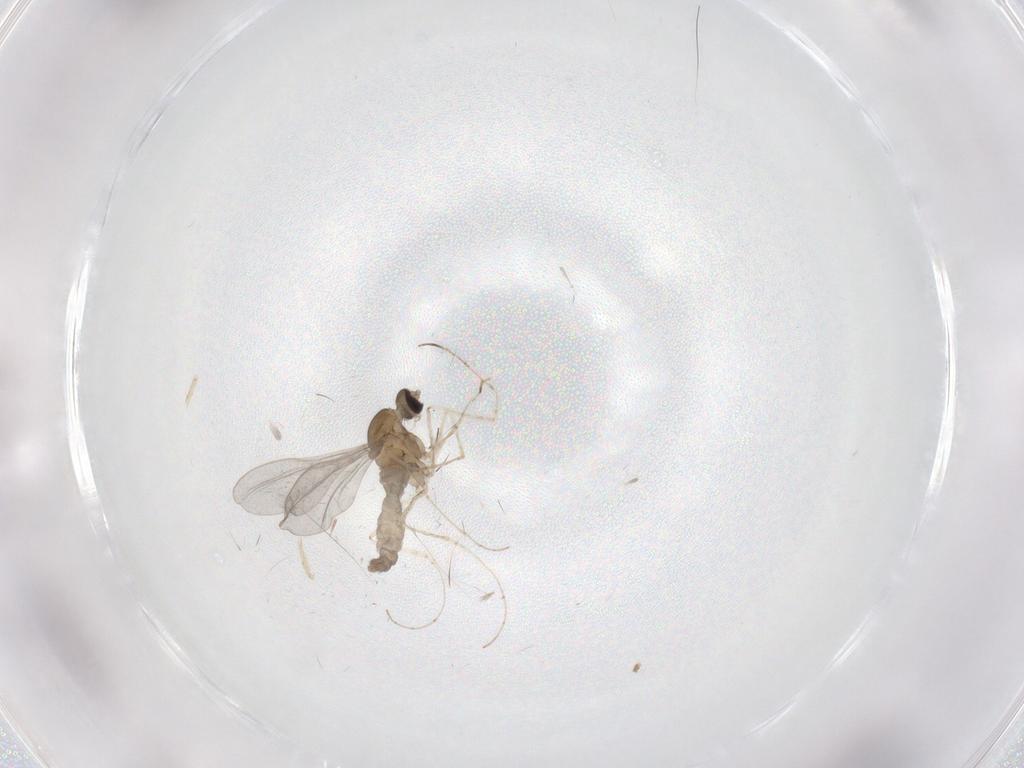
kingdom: Animalia
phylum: Arthropoda
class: Insecta
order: Diptera
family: Cecidomyiidae
